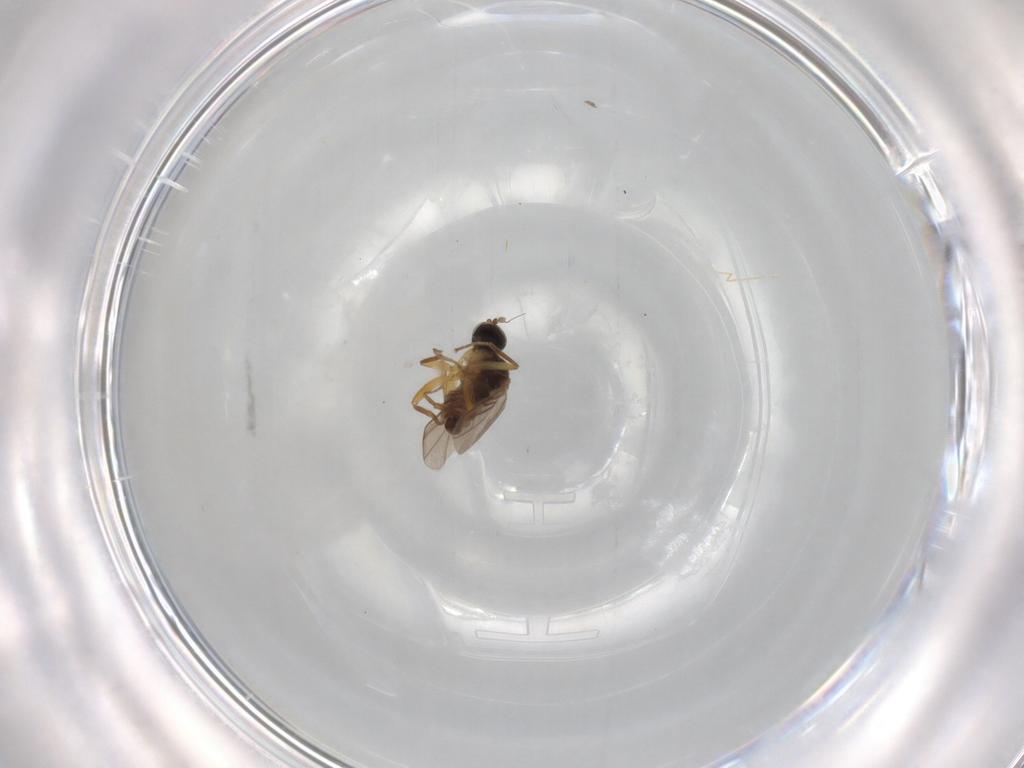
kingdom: Animalia
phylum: Arthropoda
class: Insecta
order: Diptera
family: Hybotidae
